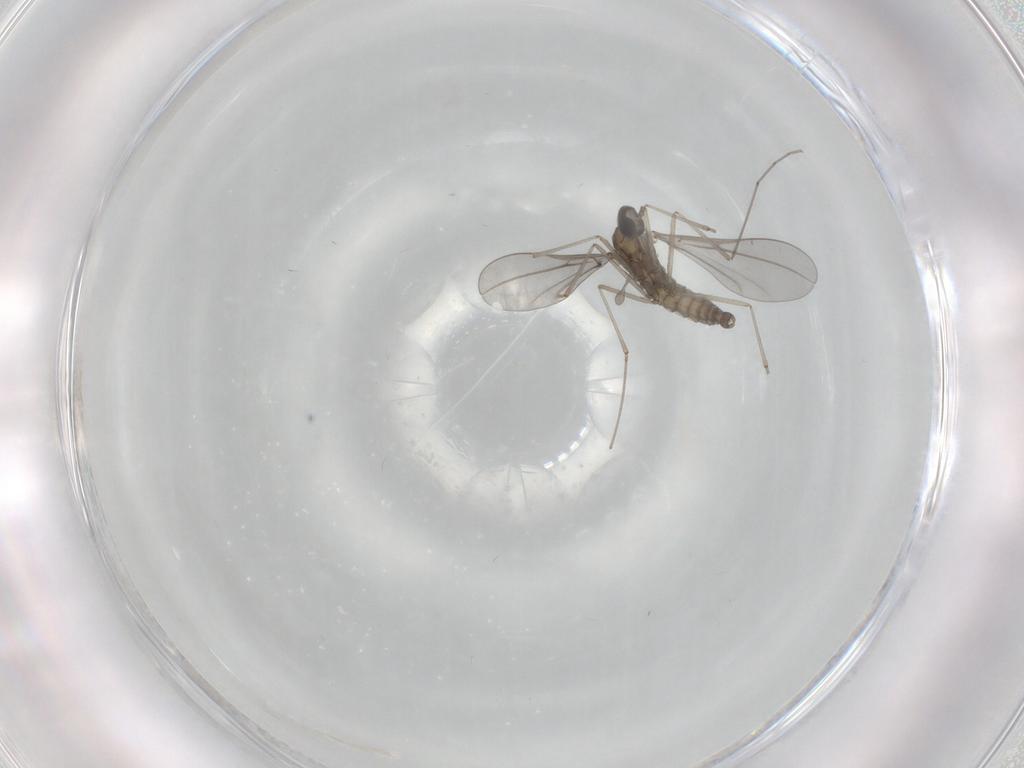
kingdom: Animalia
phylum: Arthropoda
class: Insecta
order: Diptera
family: Cecidomyiidae
